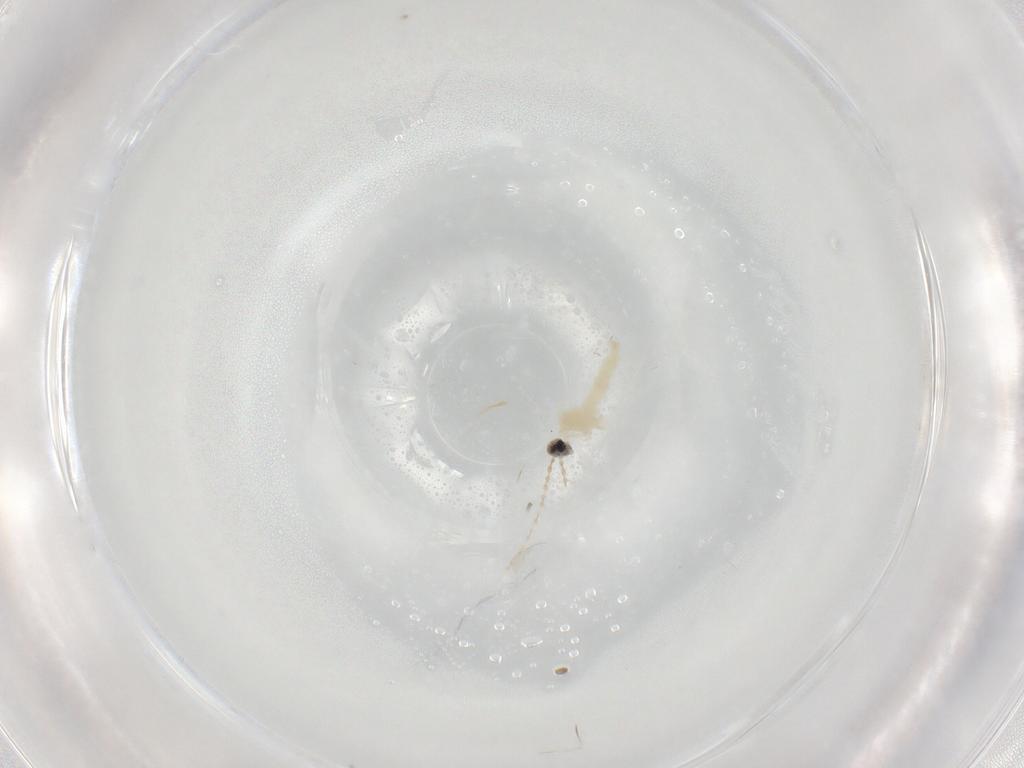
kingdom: Animalia
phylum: Arthropoda
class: Insecta
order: Diptera
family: Cecidomyiidae
